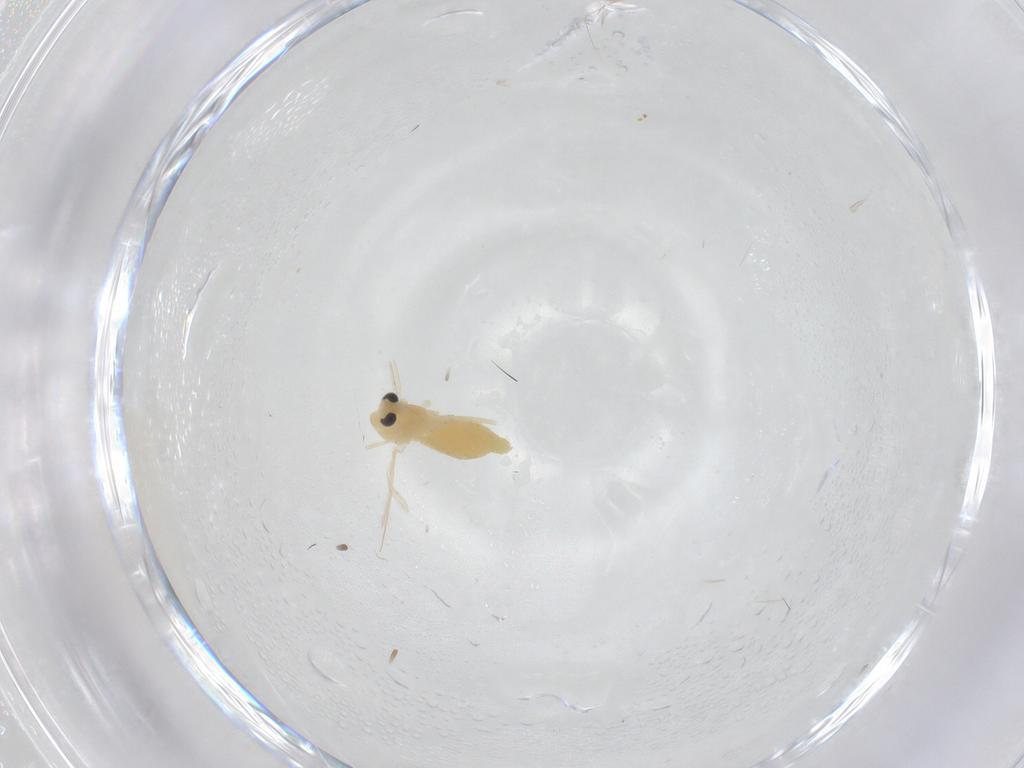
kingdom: Animalia
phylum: Arthropoda
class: Insecta
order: Diptera
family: Chironomidae
